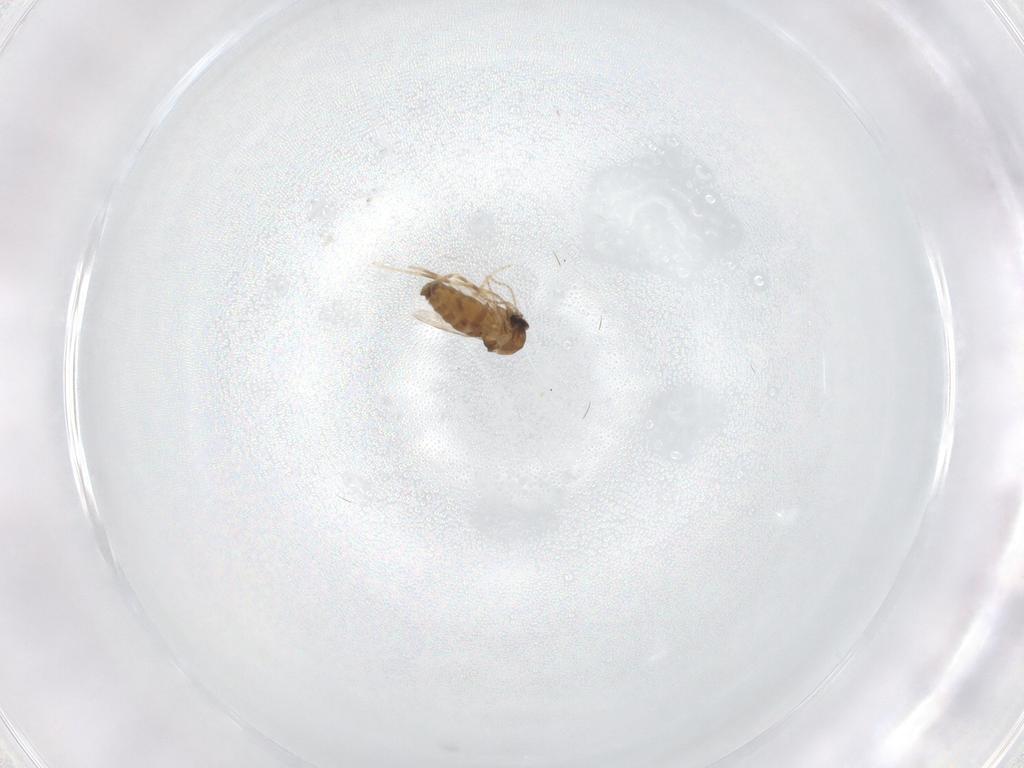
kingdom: Animalia
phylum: Arthropoda
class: Insecta
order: Diptera
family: Ceratopogonidae
